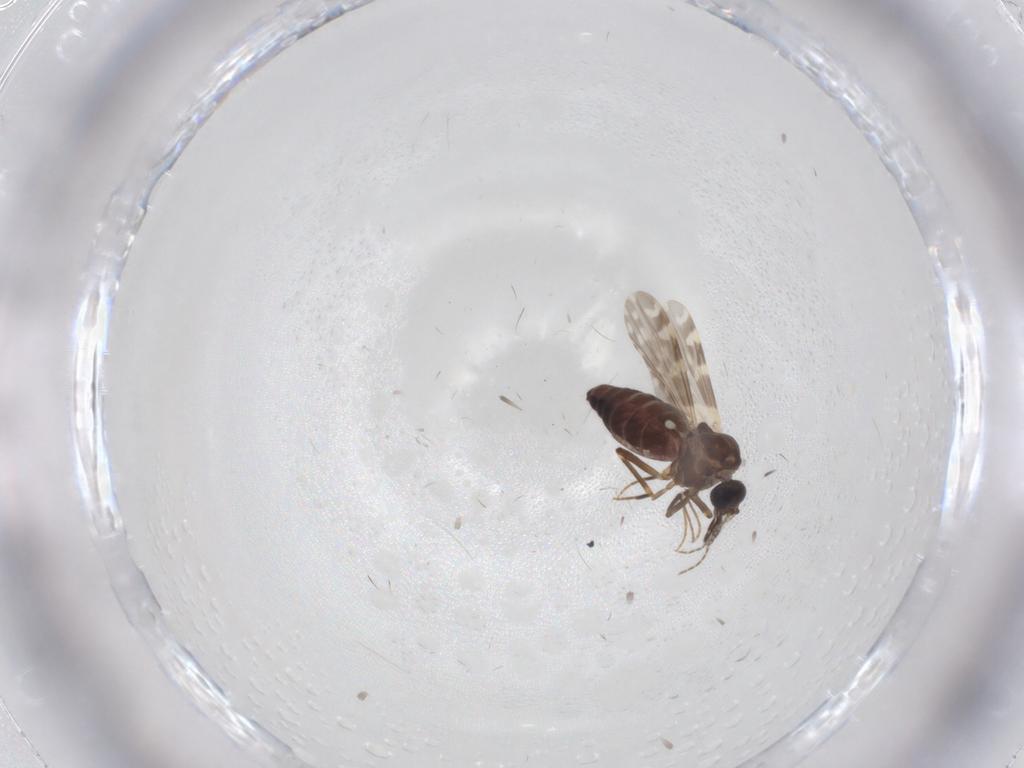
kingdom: Animalia
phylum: Arthropoda
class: Insecta
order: Diptera
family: Ceratopogonidae
